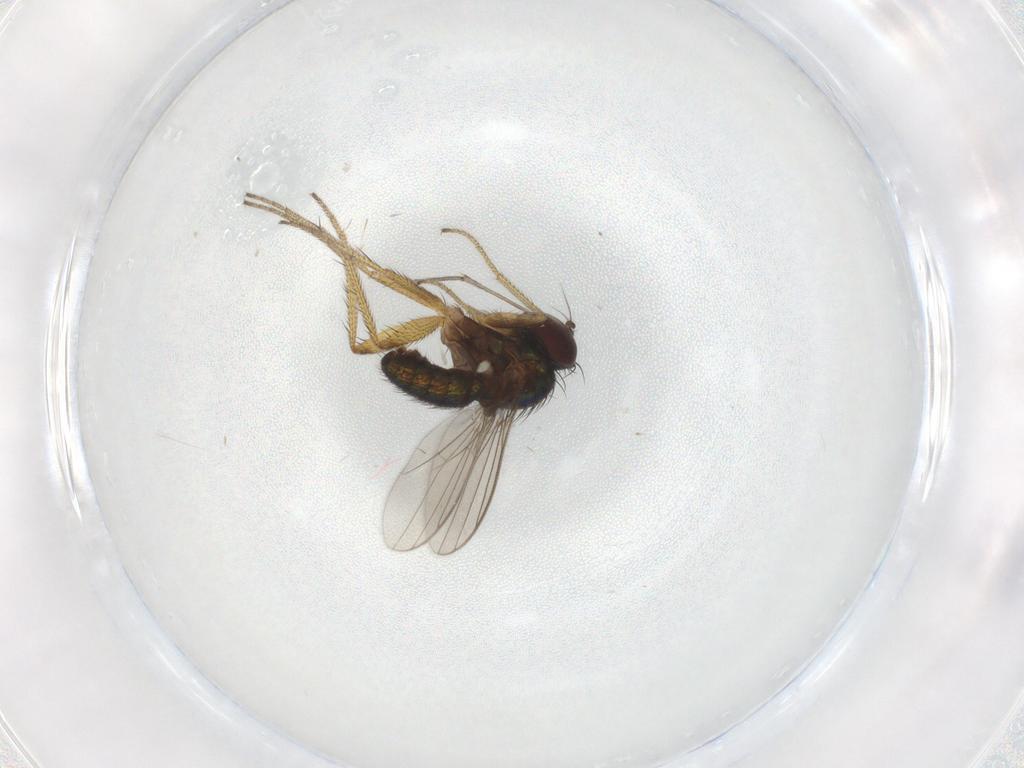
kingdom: Animalia
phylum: Arthropoda
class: Insecta
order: Diptera
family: Dolichopodidae
